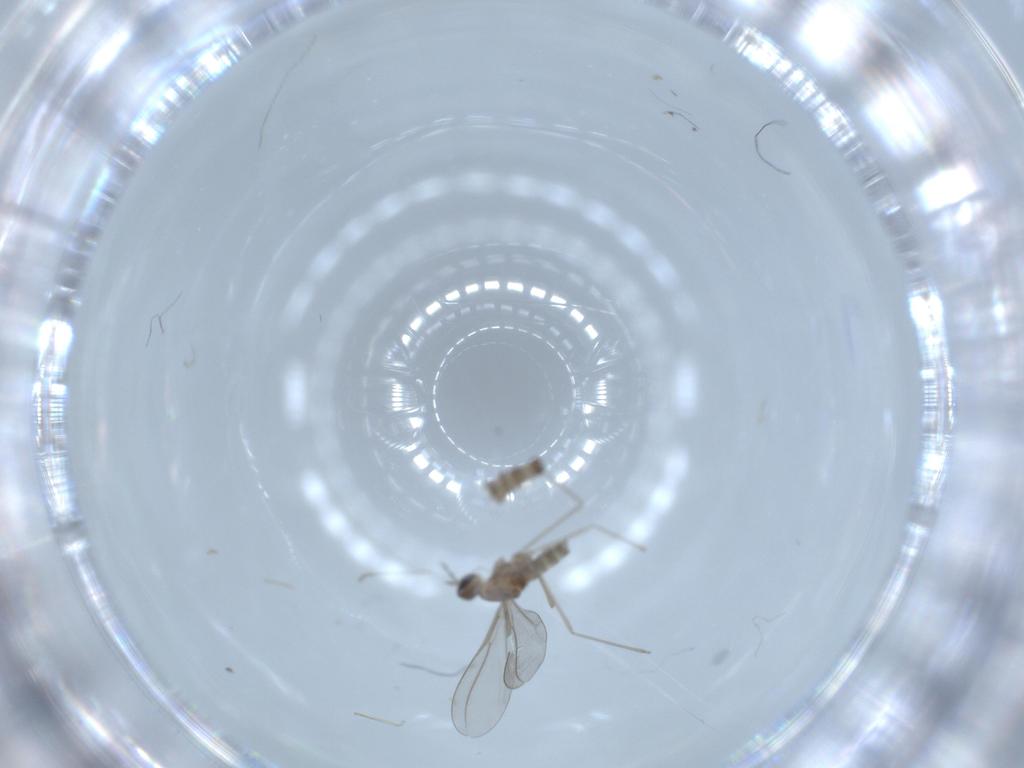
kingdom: Animalia
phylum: Arthropoda
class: Insecta
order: Diptera
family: Cecidomyiidae
